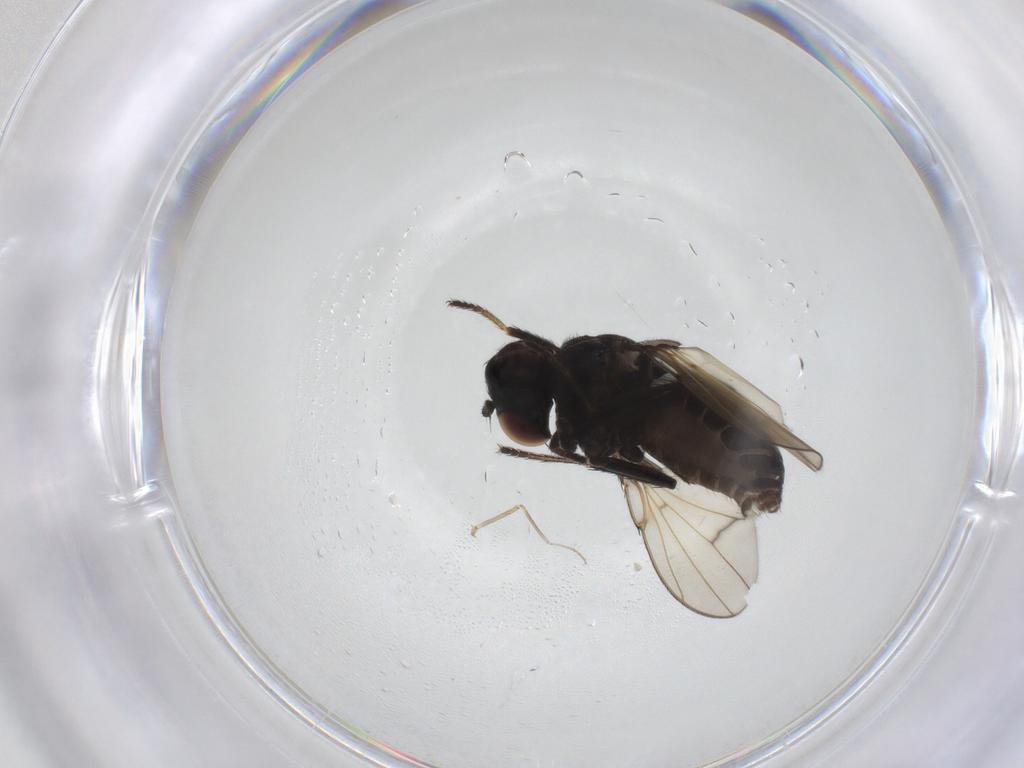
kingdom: Animalia
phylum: Arthropoda
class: Insecta
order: Diptera
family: Ephydridae
